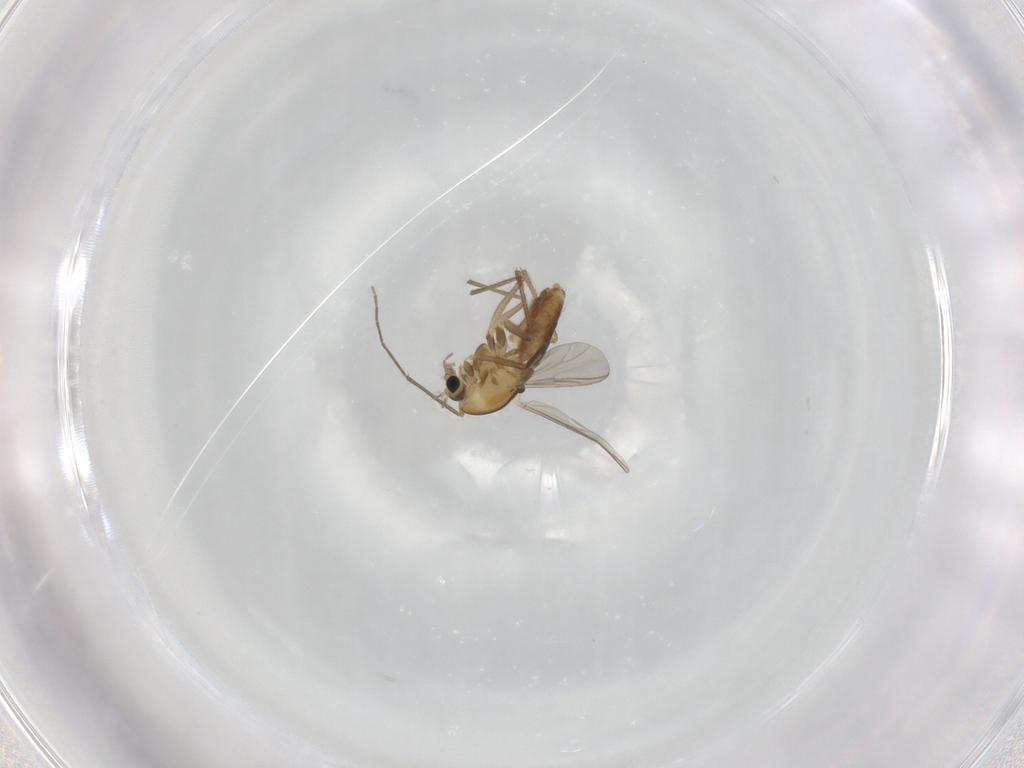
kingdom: Animalia
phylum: Arthropoda
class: Insecta
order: Diptera
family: Chironomidae
